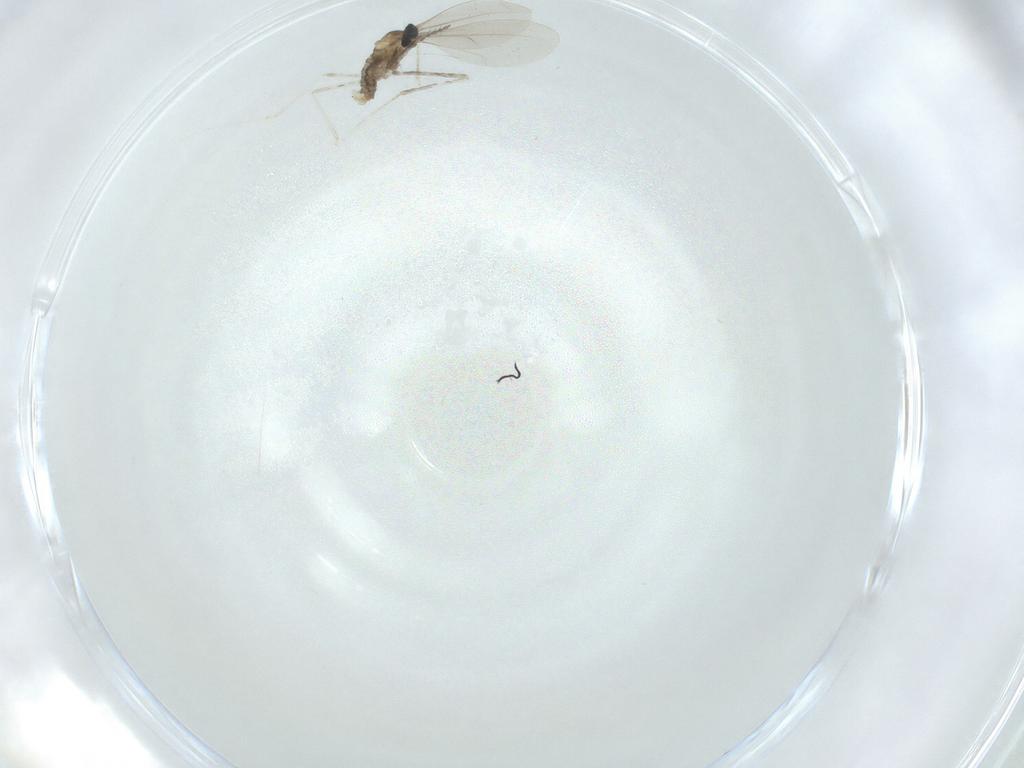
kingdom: Animalia
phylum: Arthropoda
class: Insecta
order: Diptera
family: Cecidomyiidae
